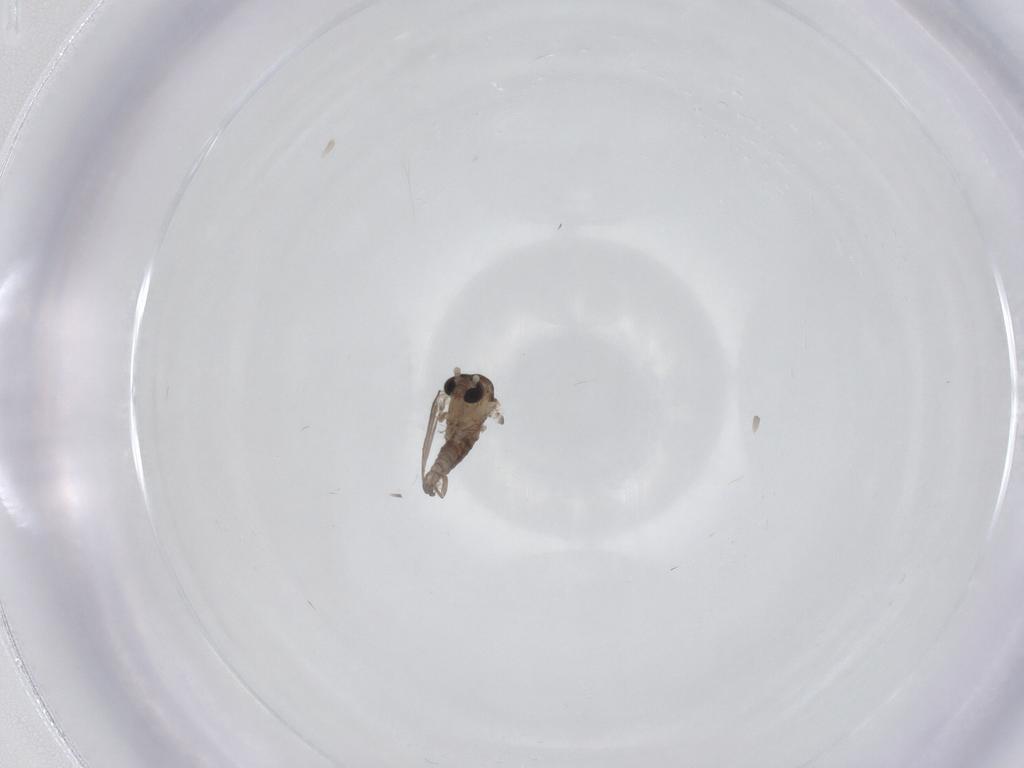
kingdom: Animalia
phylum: Arthropoda
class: Insecta
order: Diptera
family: Psychodidae
